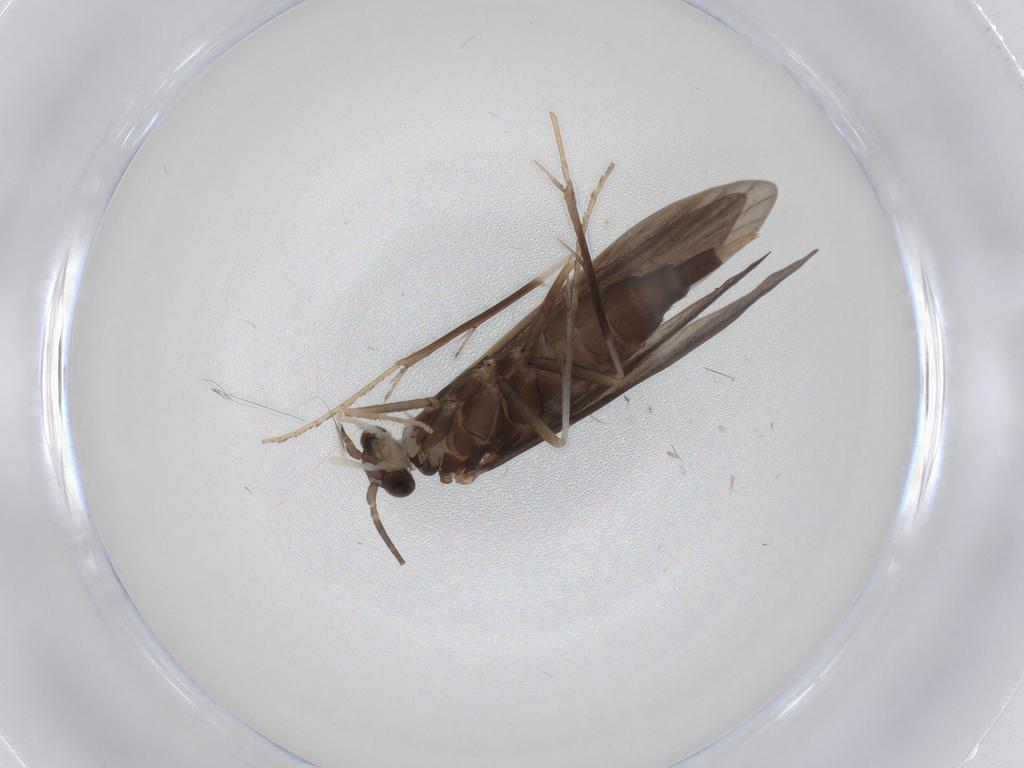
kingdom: Animalia
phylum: Arthropoda
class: Insecta
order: Trichoptera
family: Xiphocentronidae
